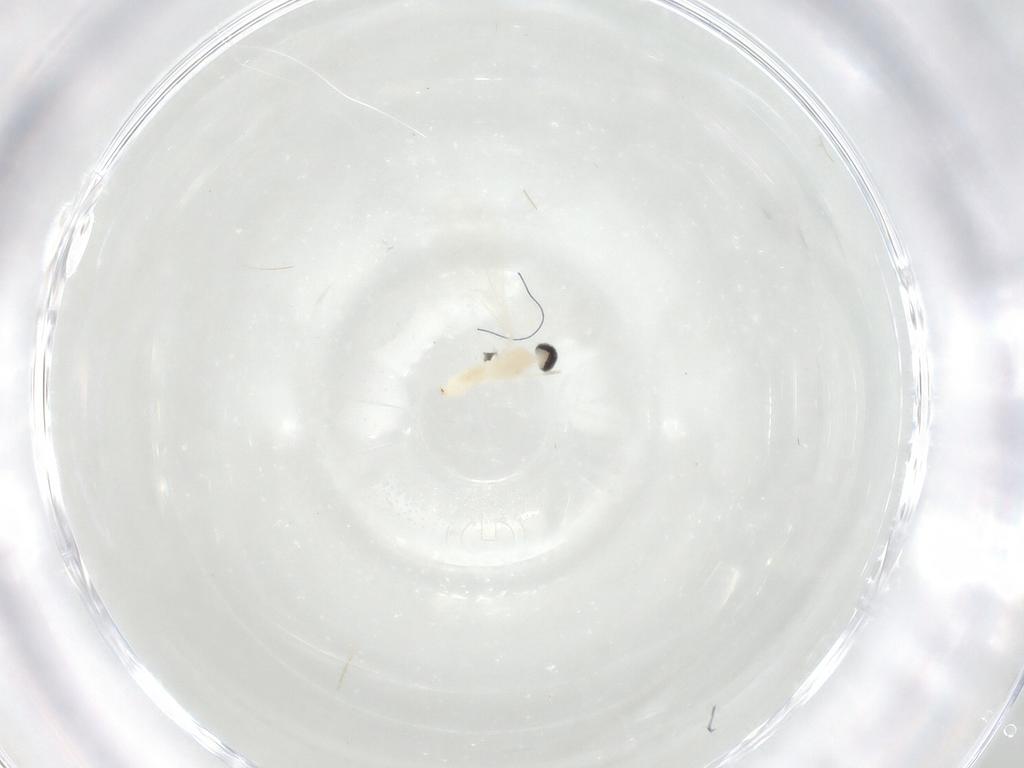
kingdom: Animalia
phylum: Arthropoda
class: Insecta
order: Diptera
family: Cecidomyiidae
